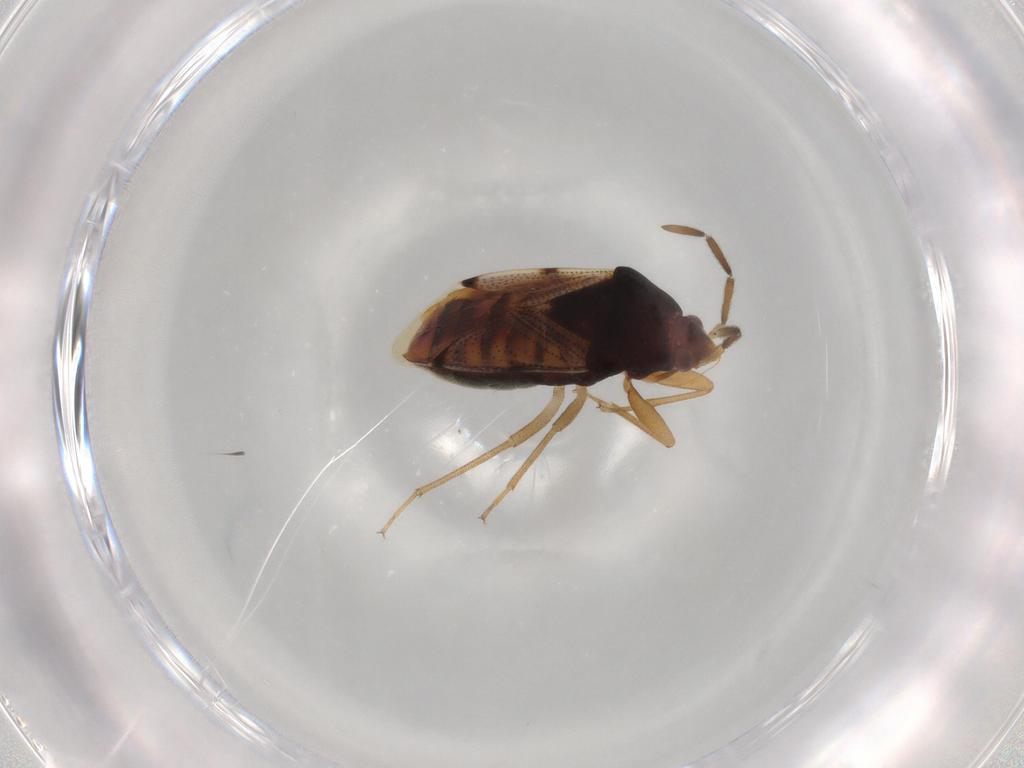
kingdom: Animalia
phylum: Arthropoda
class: Insecta
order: Hemiptera
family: Rhyparochromidae
